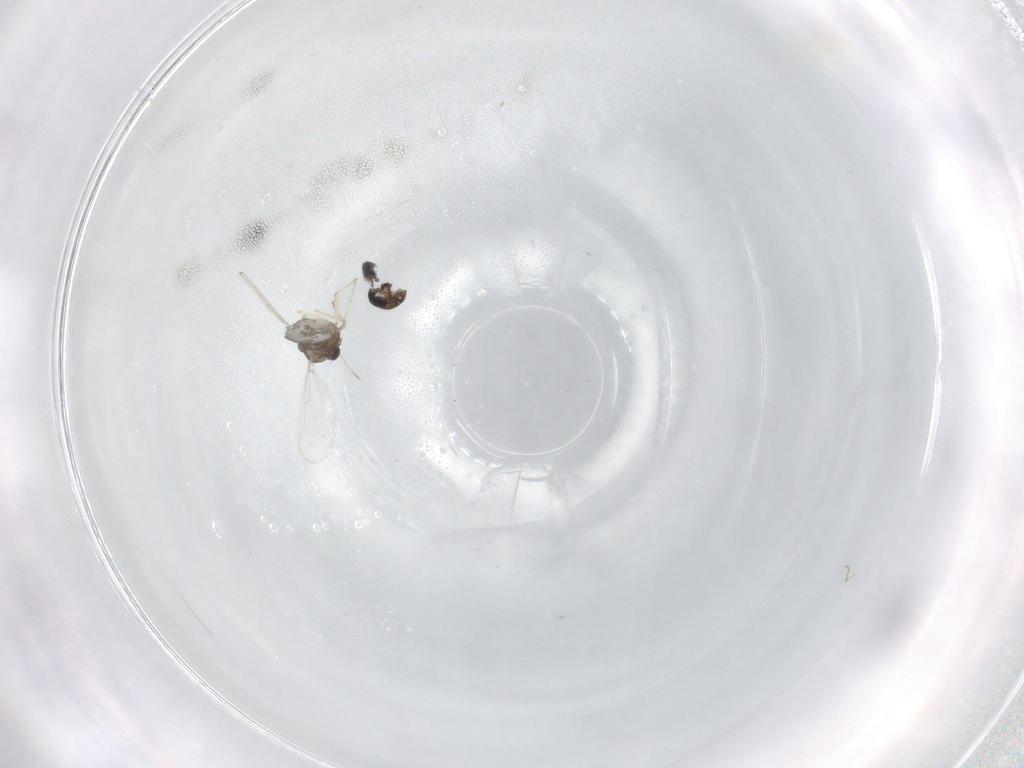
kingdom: Animalia
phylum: Arthropoda
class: Insecta
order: Diptera
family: Chironomidae
